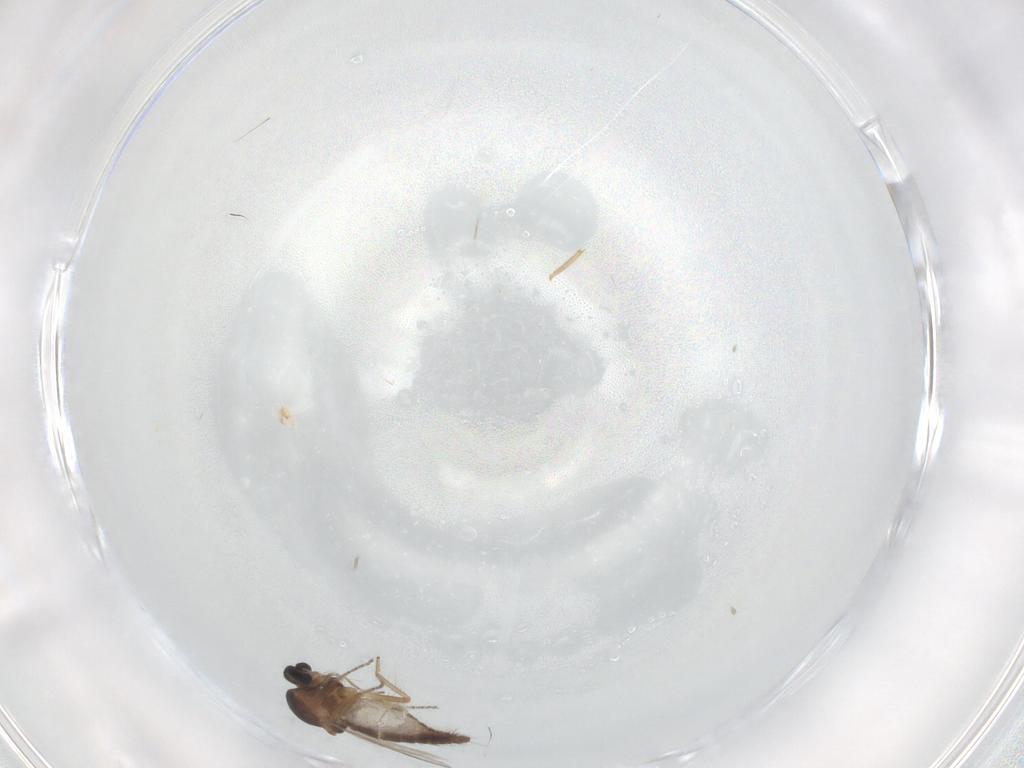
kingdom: Animalia
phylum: Arthropoda
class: Insecta
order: Diptera
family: Ceratopogonidae
